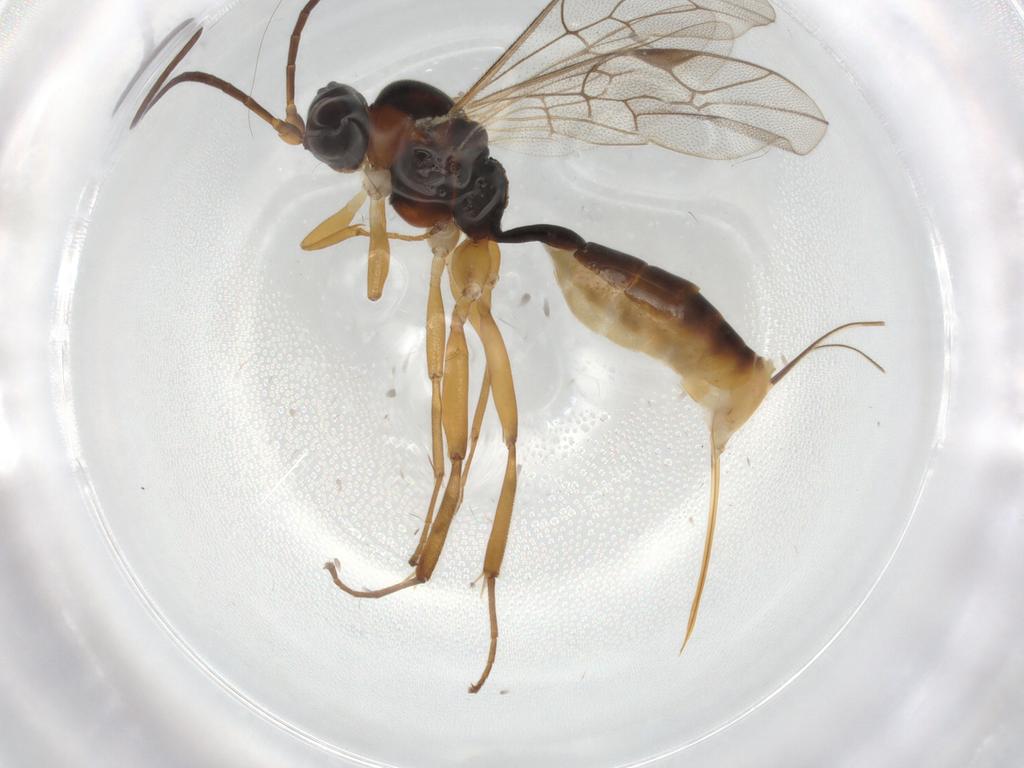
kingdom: Animalia
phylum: Arthropoda
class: Insecta
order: Hymenoptera
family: Ichneumonidae
